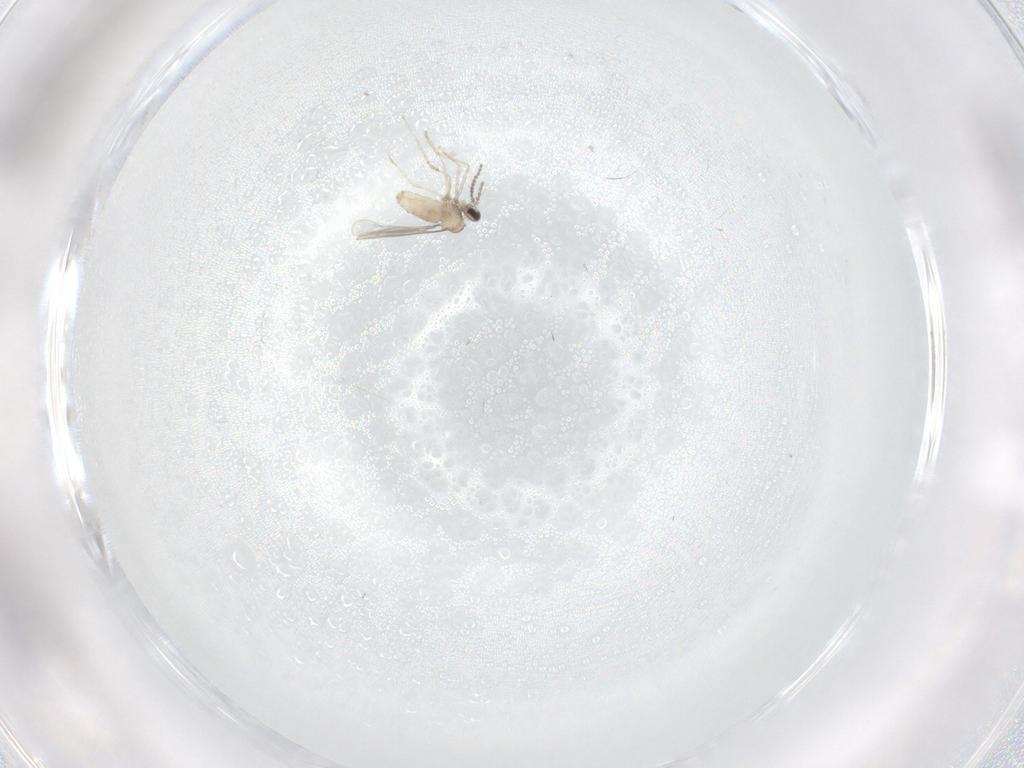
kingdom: Animalia
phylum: Arthropoda
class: Insecta
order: Diptera
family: Cecidomyiidae
